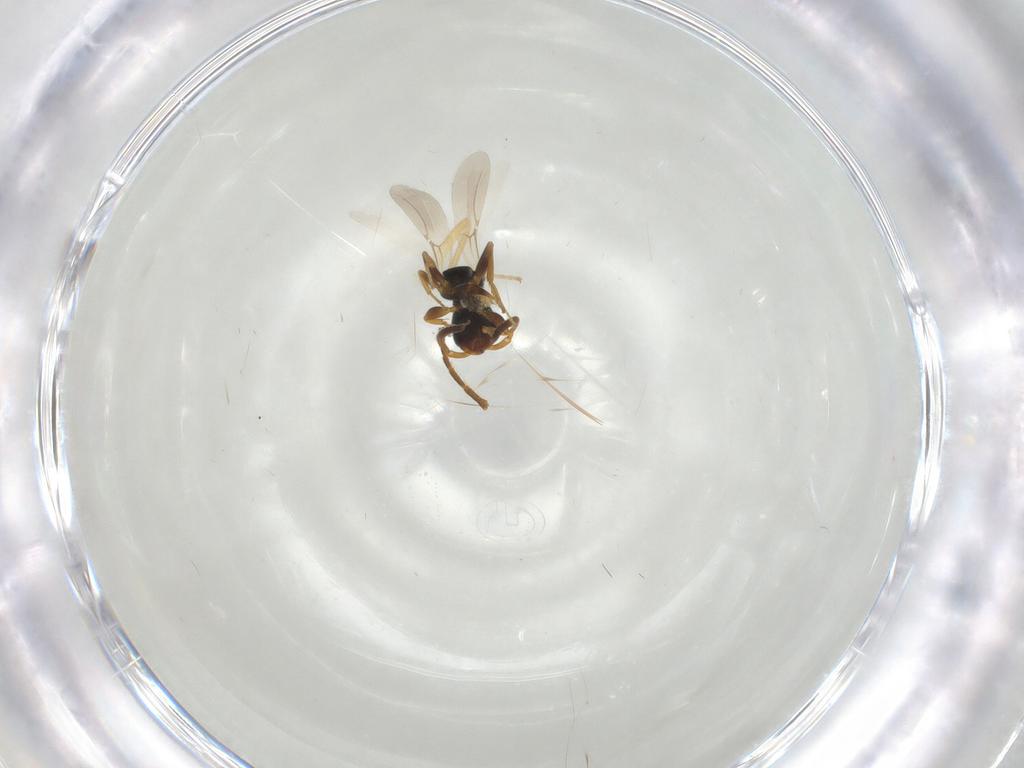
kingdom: Animalia
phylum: Arthropoda
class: Insecta
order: Hymenoptera
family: Bethylidae
